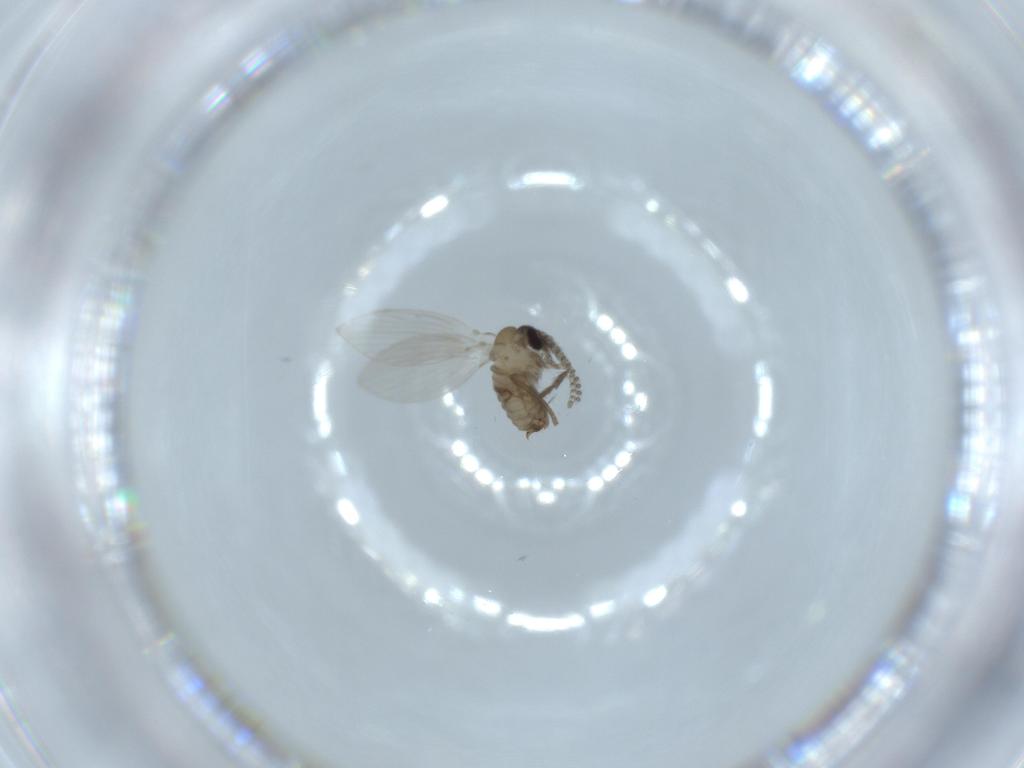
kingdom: Animalia
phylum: Arthropoda
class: Insecta
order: Diptera
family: Psychodidae
